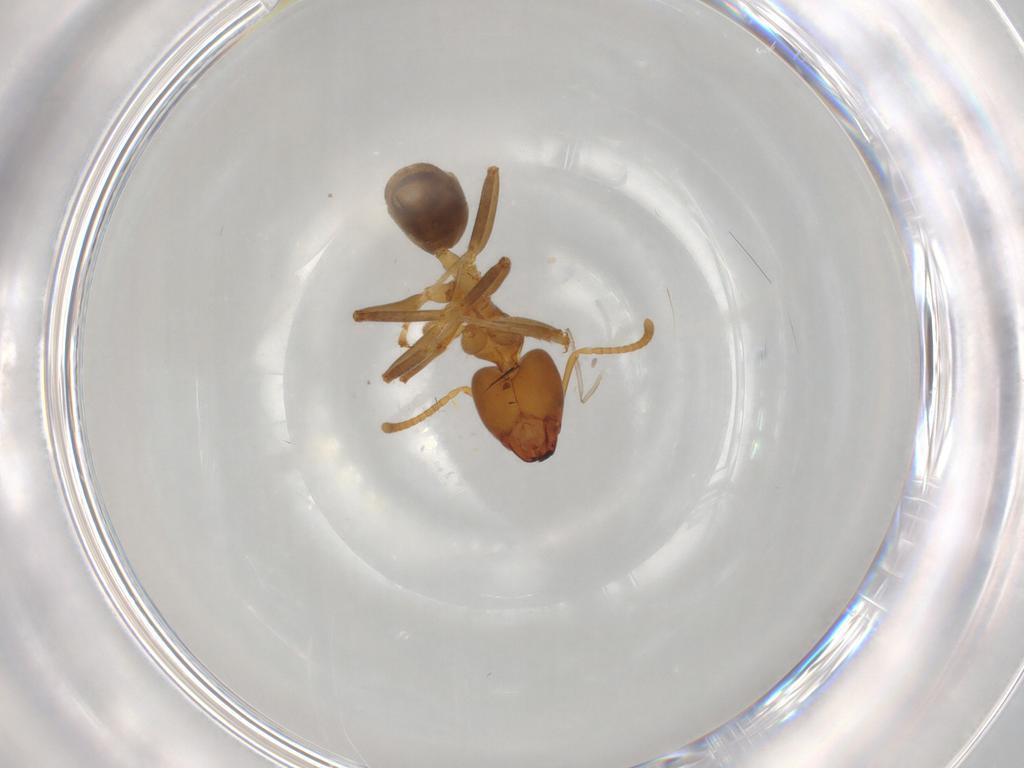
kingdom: Animalia
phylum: Arthropoda
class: Insecta
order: Hymenoptera
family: Formicidae
